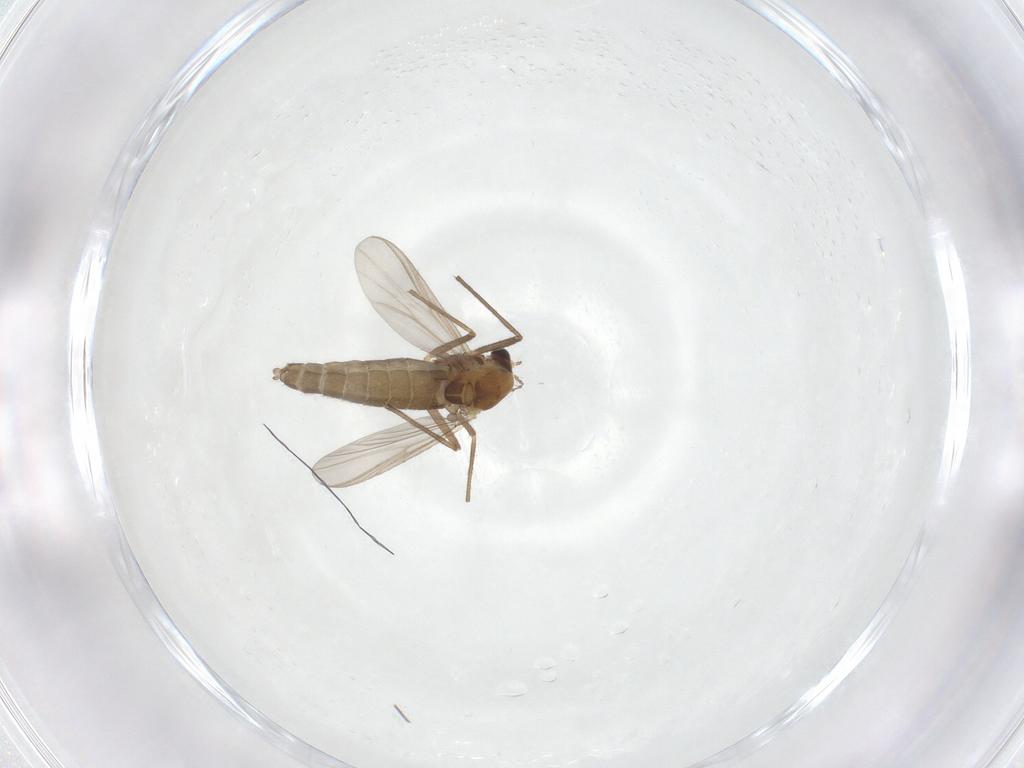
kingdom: Animalia
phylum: Arthropoda
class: Insecta
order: Diptera
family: Chironomidae
